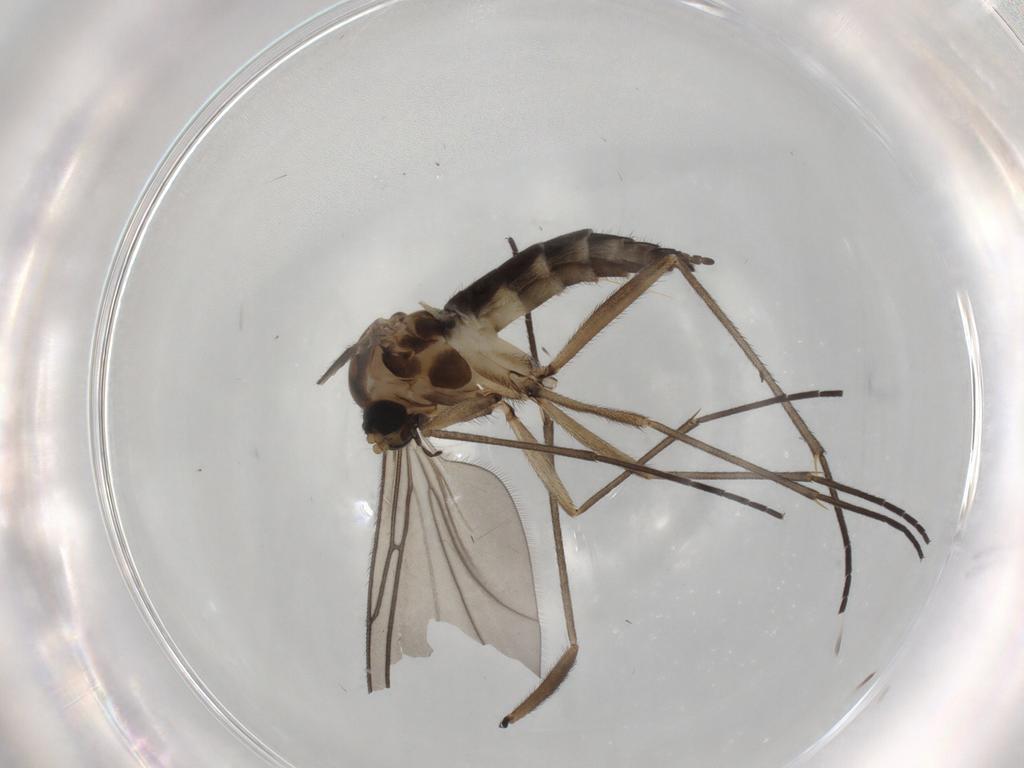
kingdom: Animalia
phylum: Arthropoda
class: Insecta
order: Diptera
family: Sciaridae
